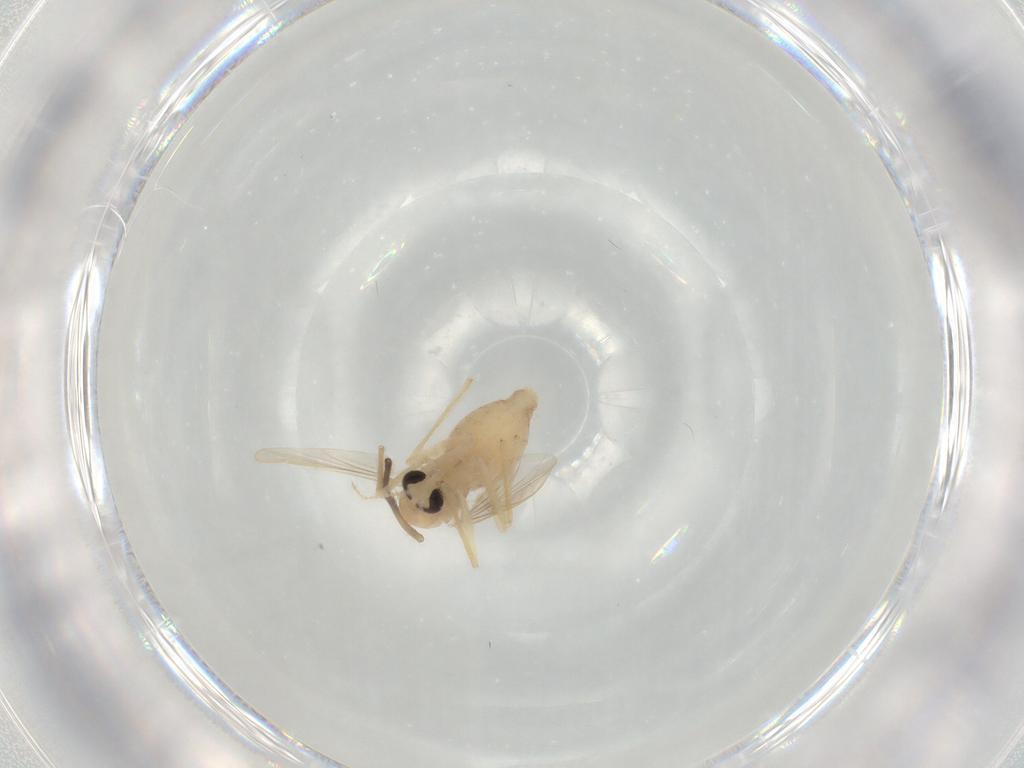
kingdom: Animalia
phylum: Arthropoda
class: Insecta
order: Diptera
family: Chironomidae
